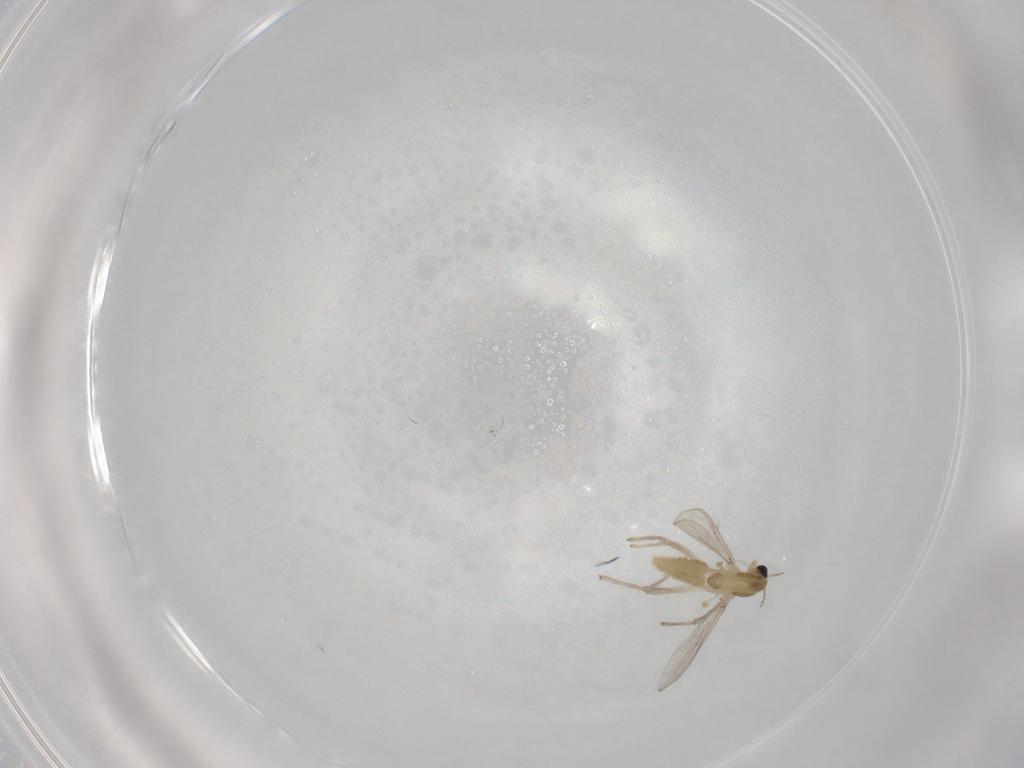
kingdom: Animalia
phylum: Arthropoda
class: Insecta
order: Diptera
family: Chironomidae
